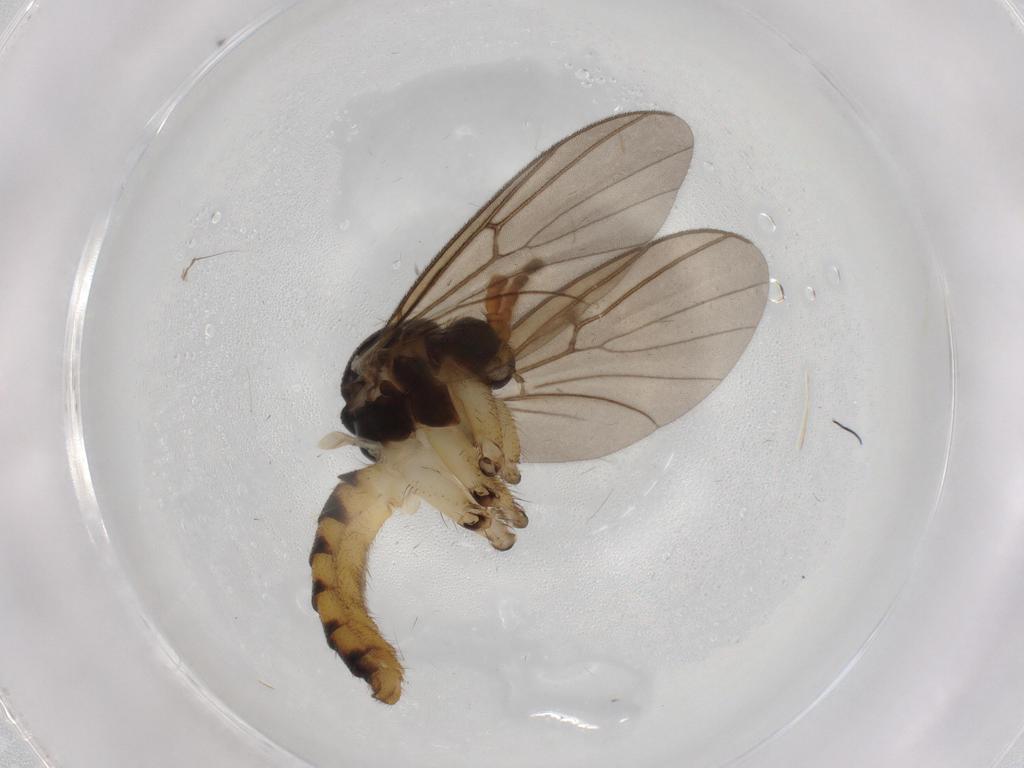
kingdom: Animalia
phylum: Arthropoda
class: Insecta
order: Diptera
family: Psychodidae
